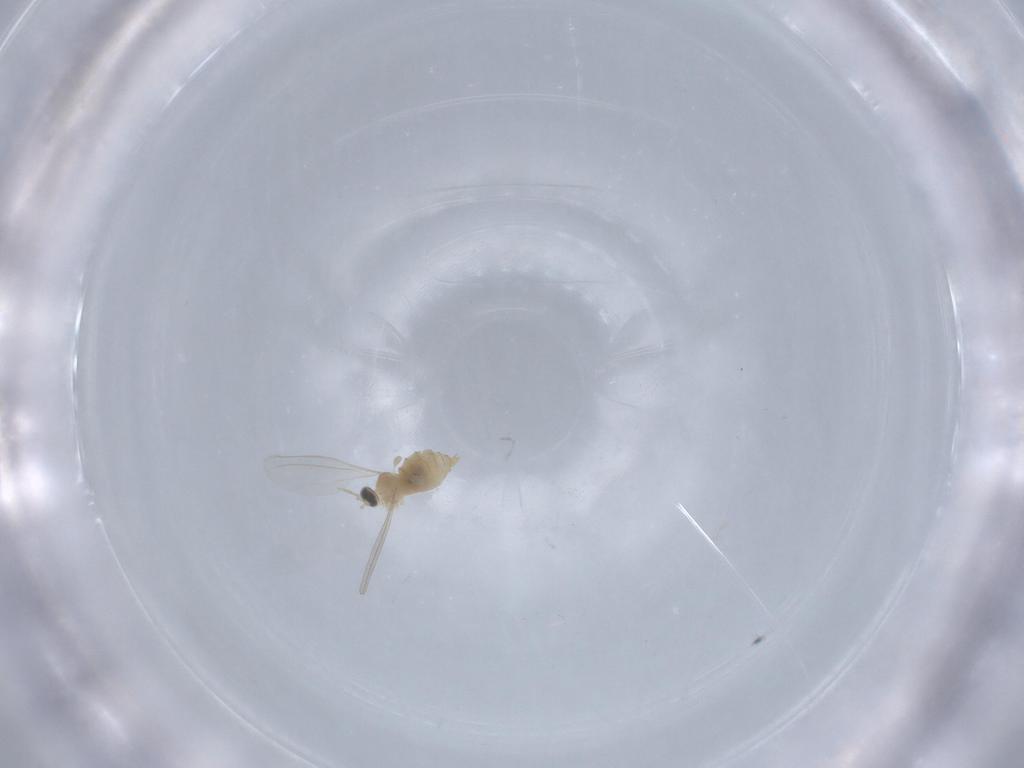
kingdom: Animalia
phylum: Arthropoda
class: Insecta
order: Diptera
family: Cecidomyiidae
